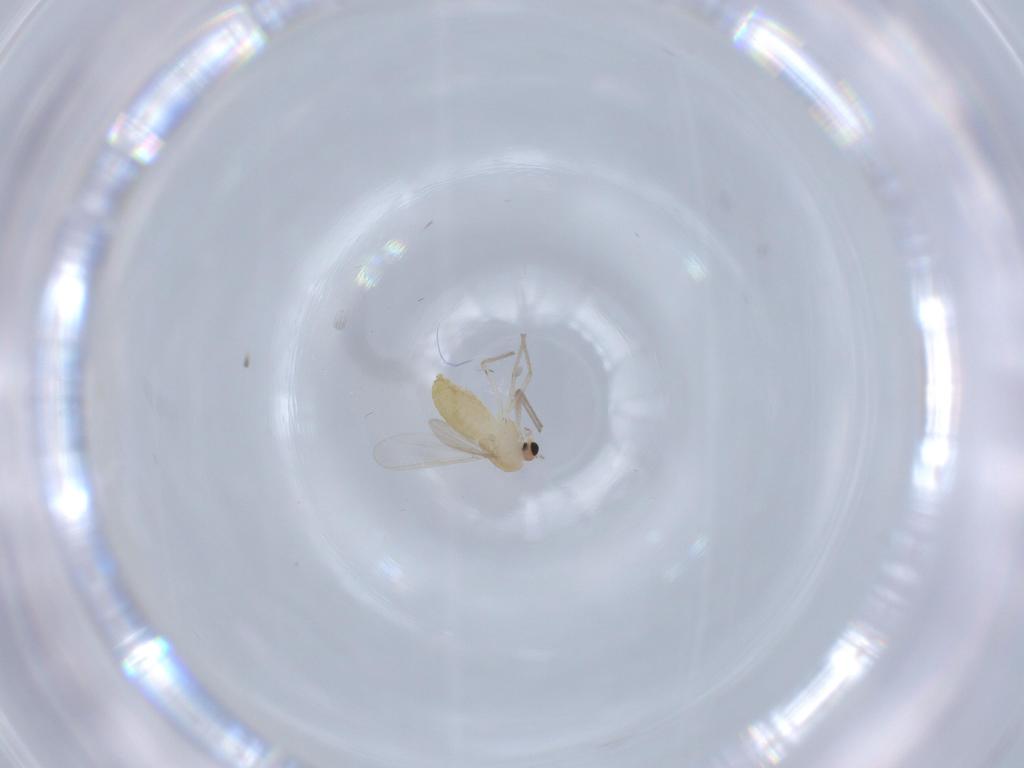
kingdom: Animalia
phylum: Arthropoda
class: Insecta
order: Diptera
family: Chironomidae
